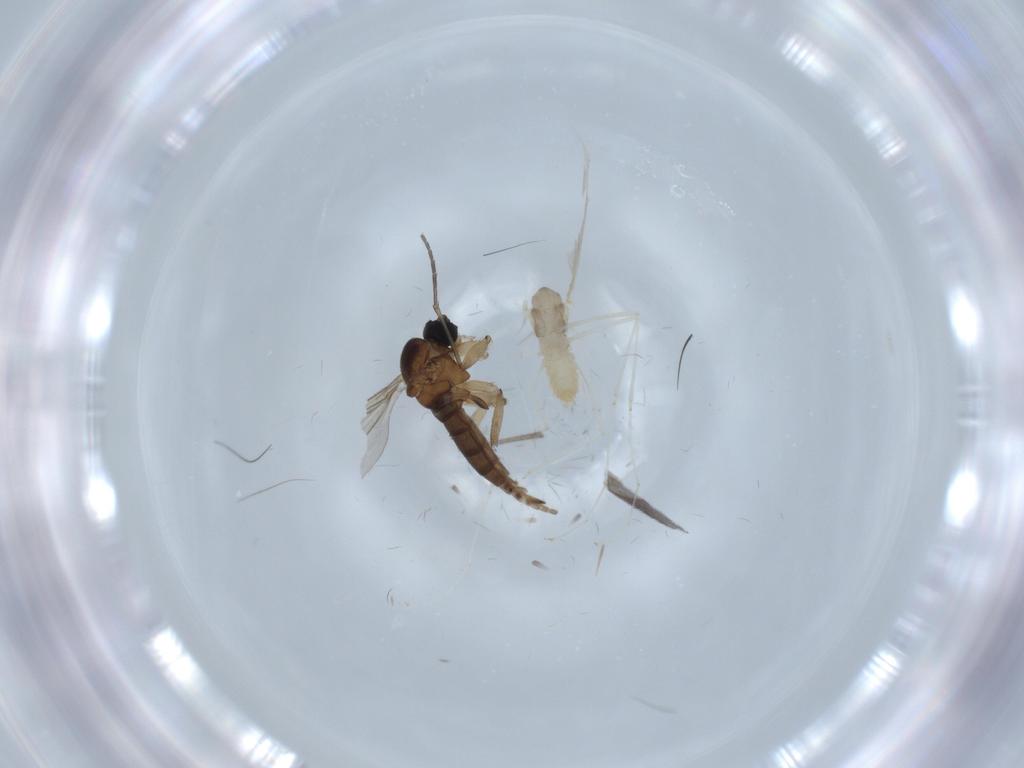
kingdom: Animalia
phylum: Arthropoda
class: Insecta
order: Diptera
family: Cecidomyiidae
